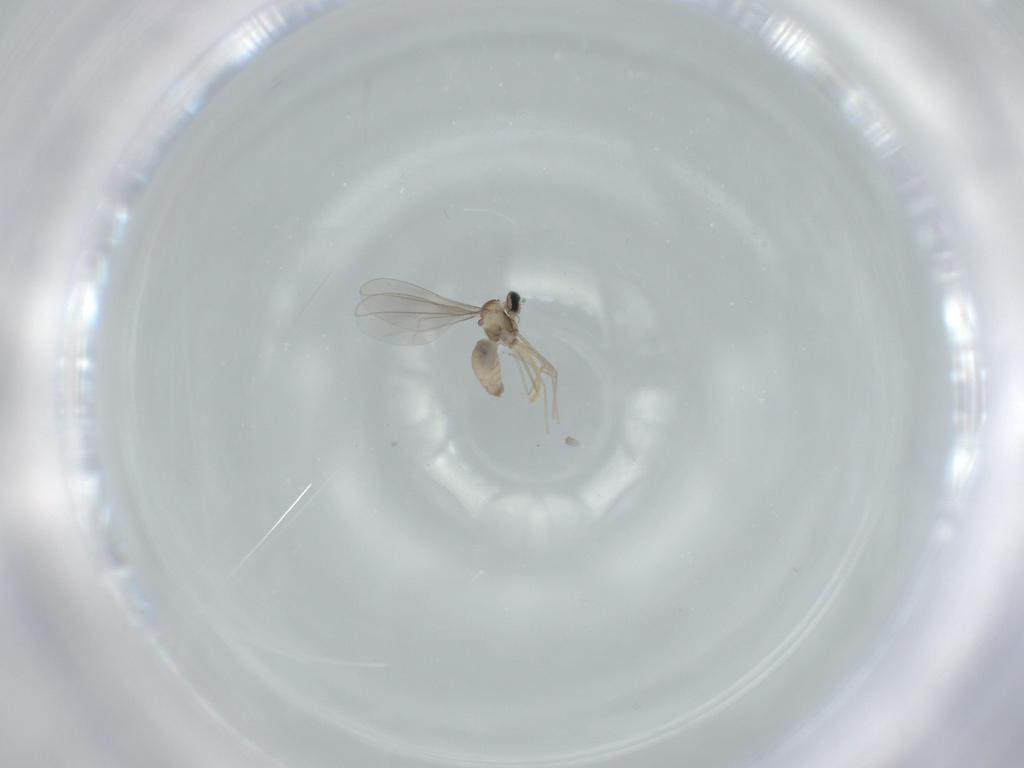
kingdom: Animalia
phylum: Arthropoda
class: Insecta
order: Diptera
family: Cecidomyiidae
